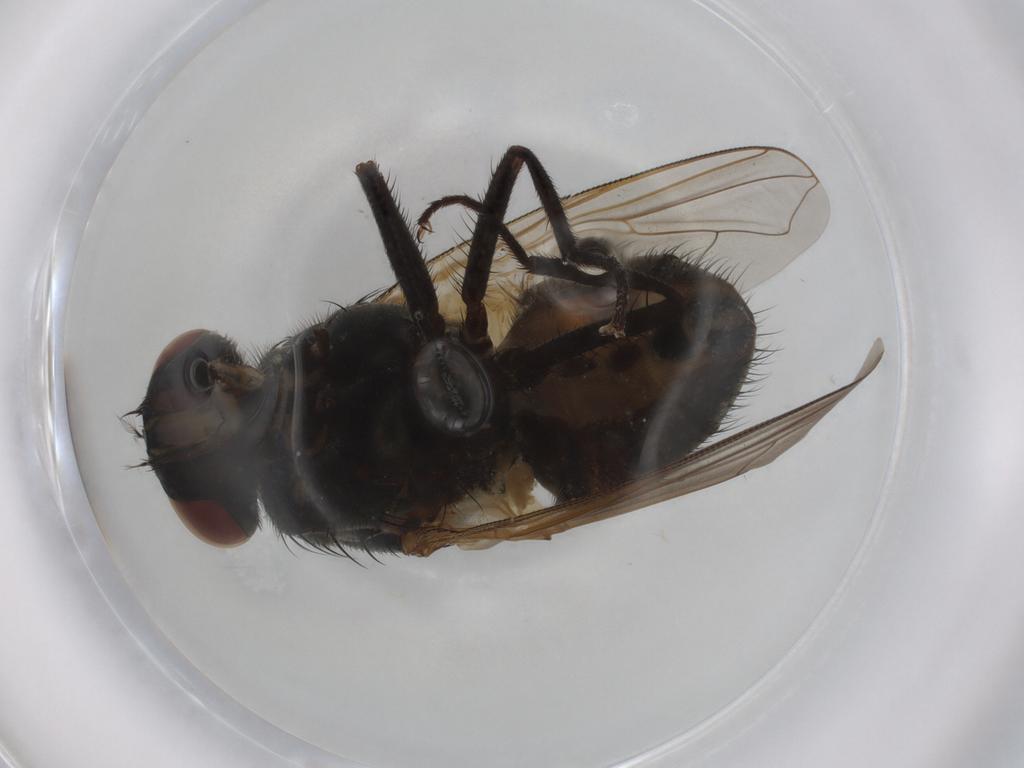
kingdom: Animalia
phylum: Arthropoda
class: Insecta
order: Diptera
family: Muscidae
